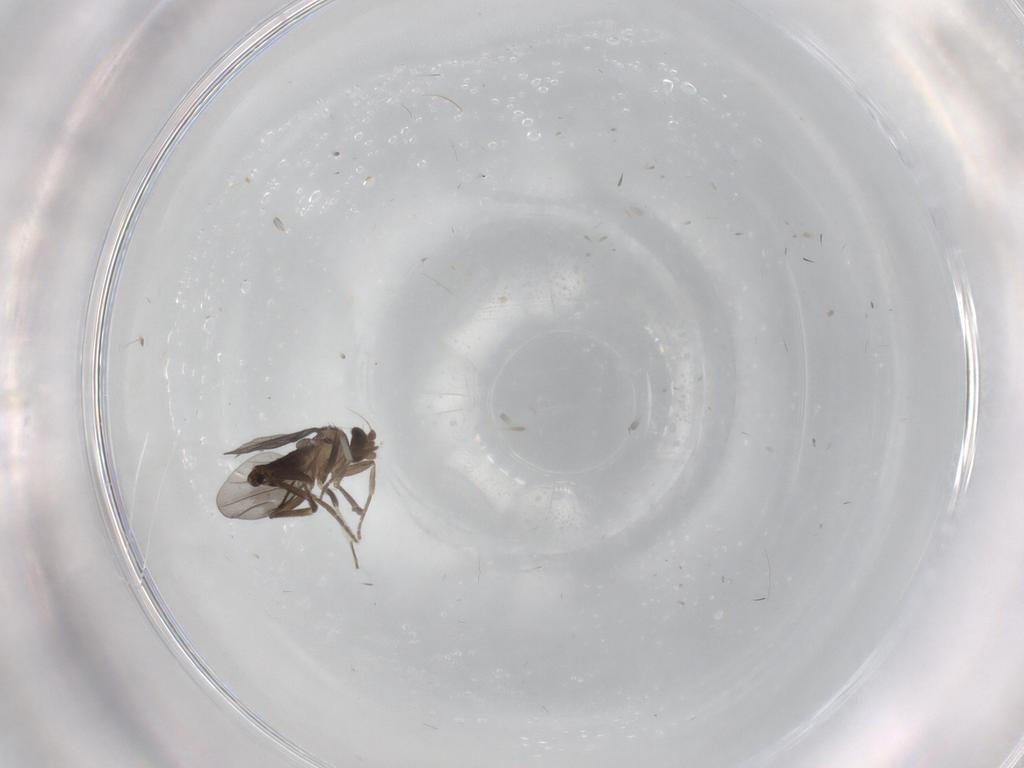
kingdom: Animalia
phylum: Arthropoda
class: Insecta
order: Diptera
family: Phoridae
